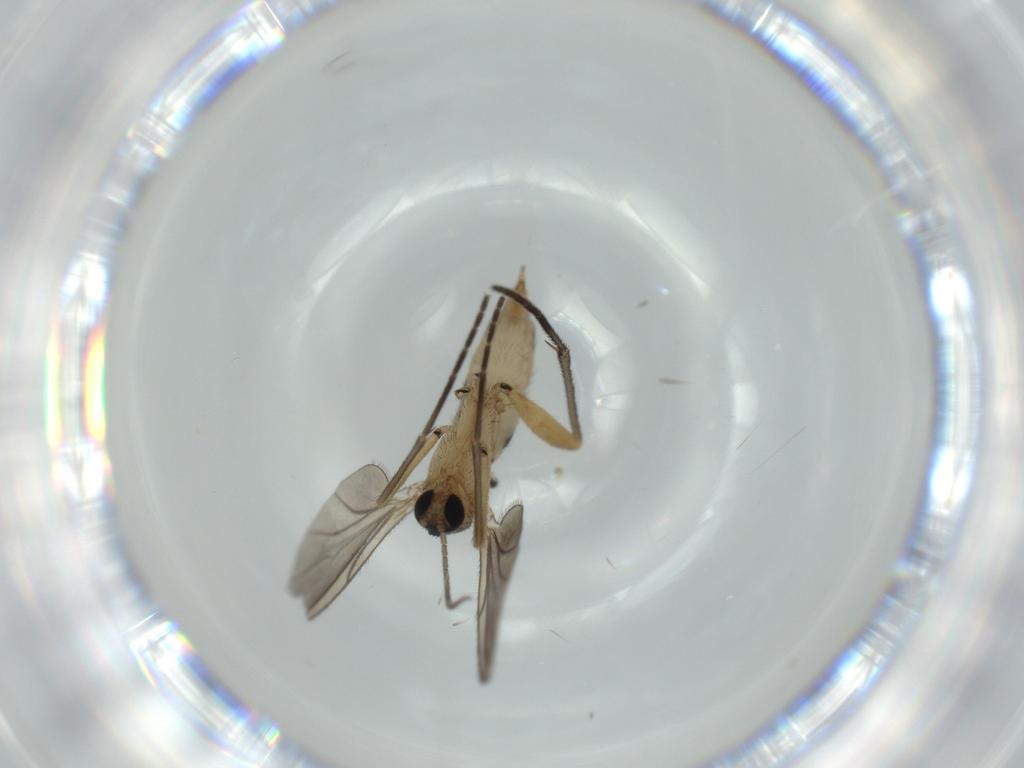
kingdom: Animalia
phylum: Arthropoda
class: Insecta
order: Diptera
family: Sciaridae
